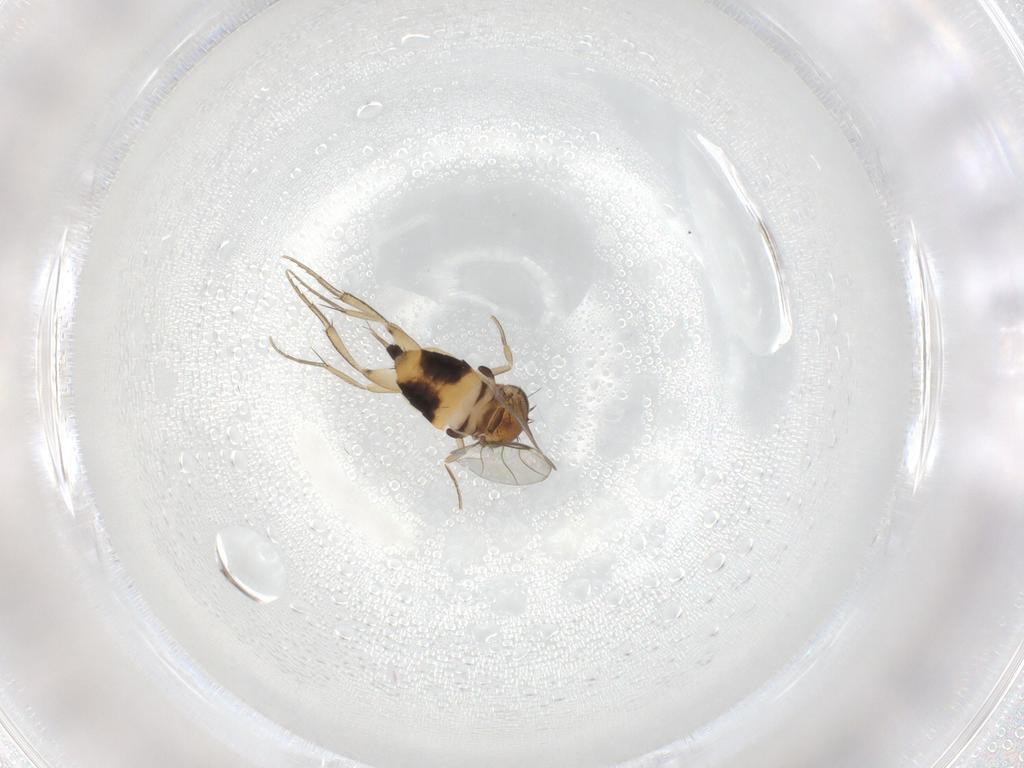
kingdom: Animalia
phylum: Arthropoda
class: Insecta
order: Diptera
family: Phoridae
